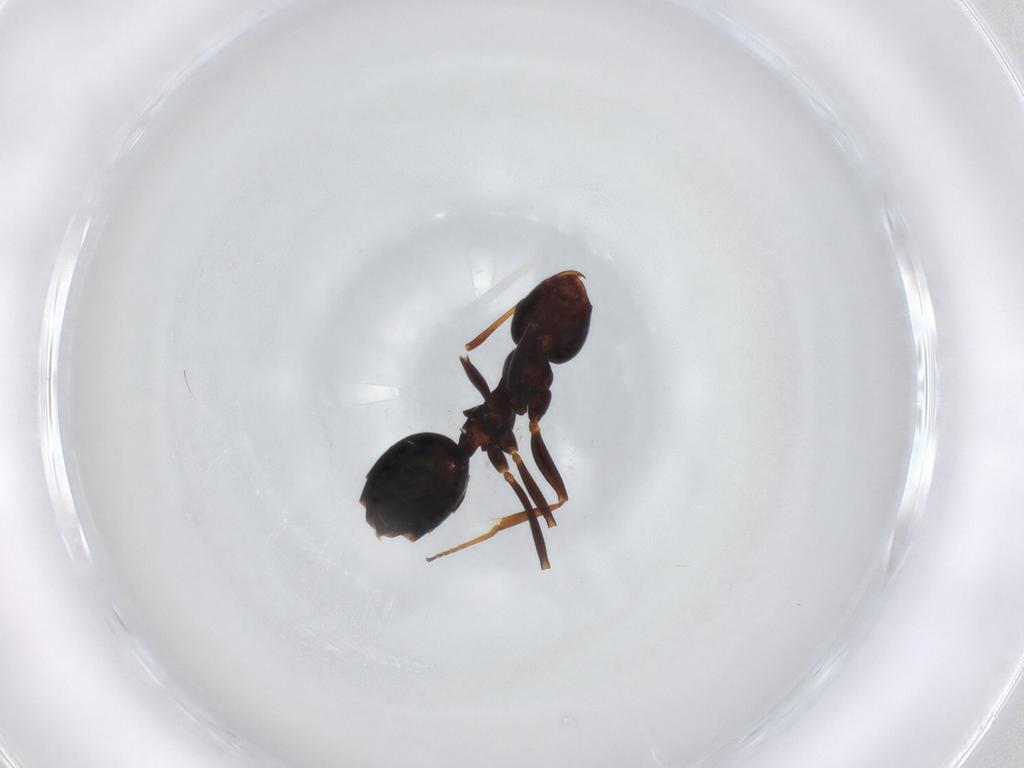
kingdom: Animalia
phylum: Arthropoda
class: Insecta
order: Hymenoptera
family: Formicidae
